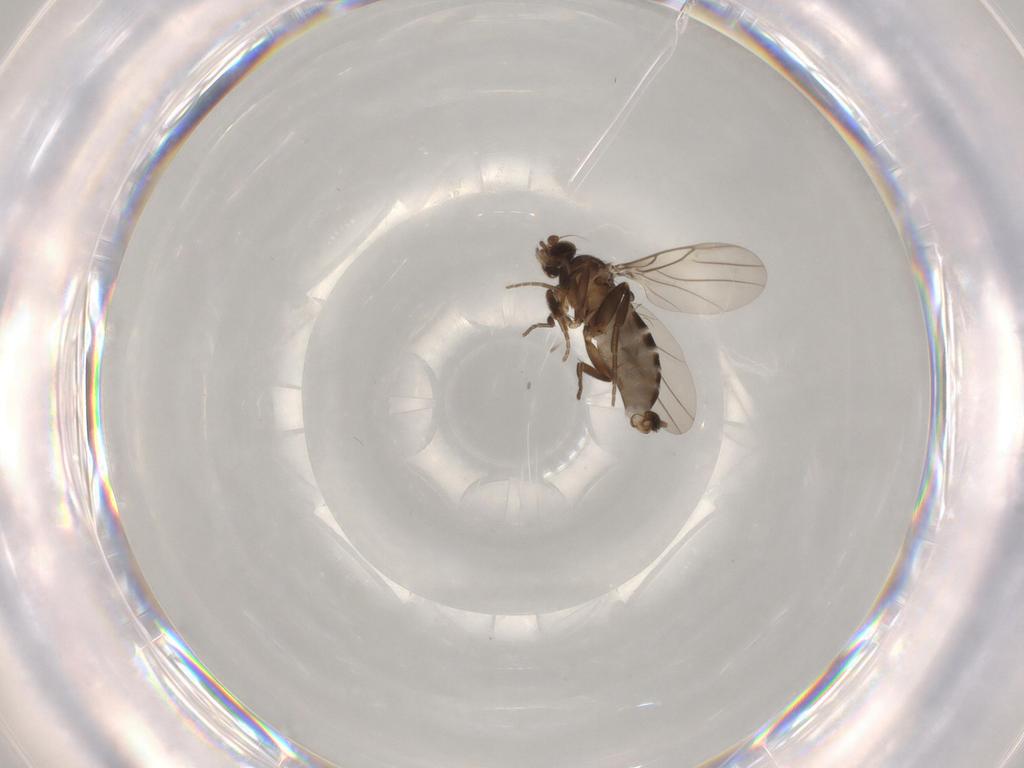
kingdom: Animalia
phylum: Arthropoda
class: Insecta
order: Diptera
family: Phoridae
